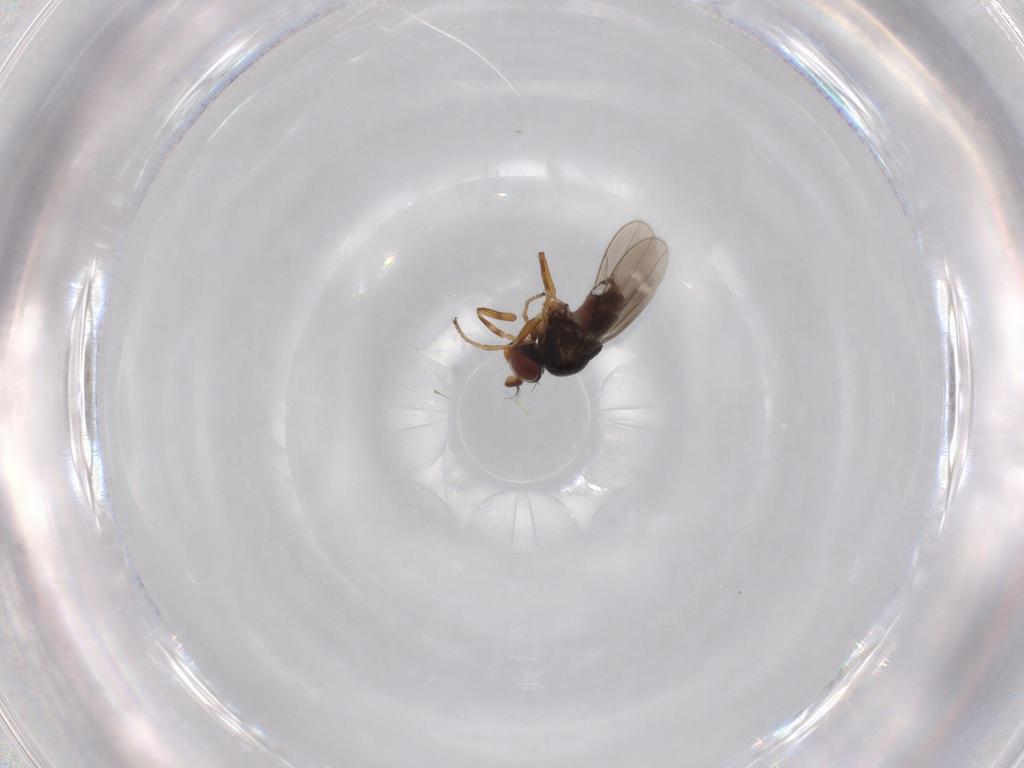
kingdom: Animalia
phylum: Arthropoda
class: Insecta
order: Diptera
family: Ephydridae
